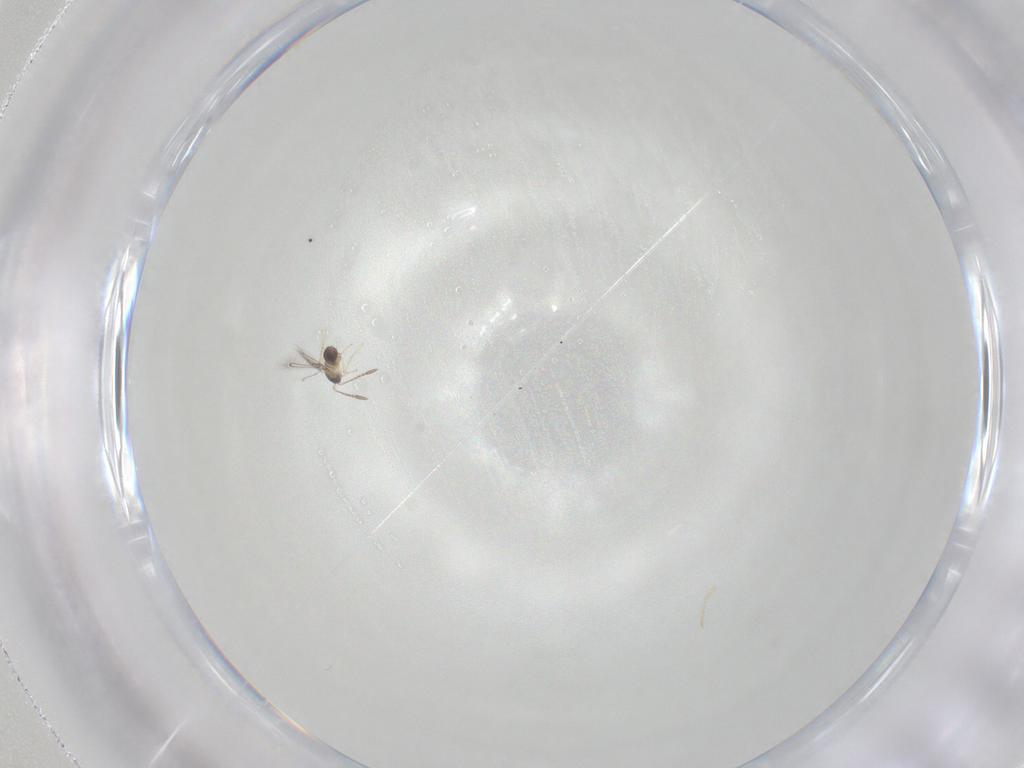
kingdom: Animalia
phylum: Arthropoda
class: Insecta
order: Hymenoptera
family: Mymaridae
